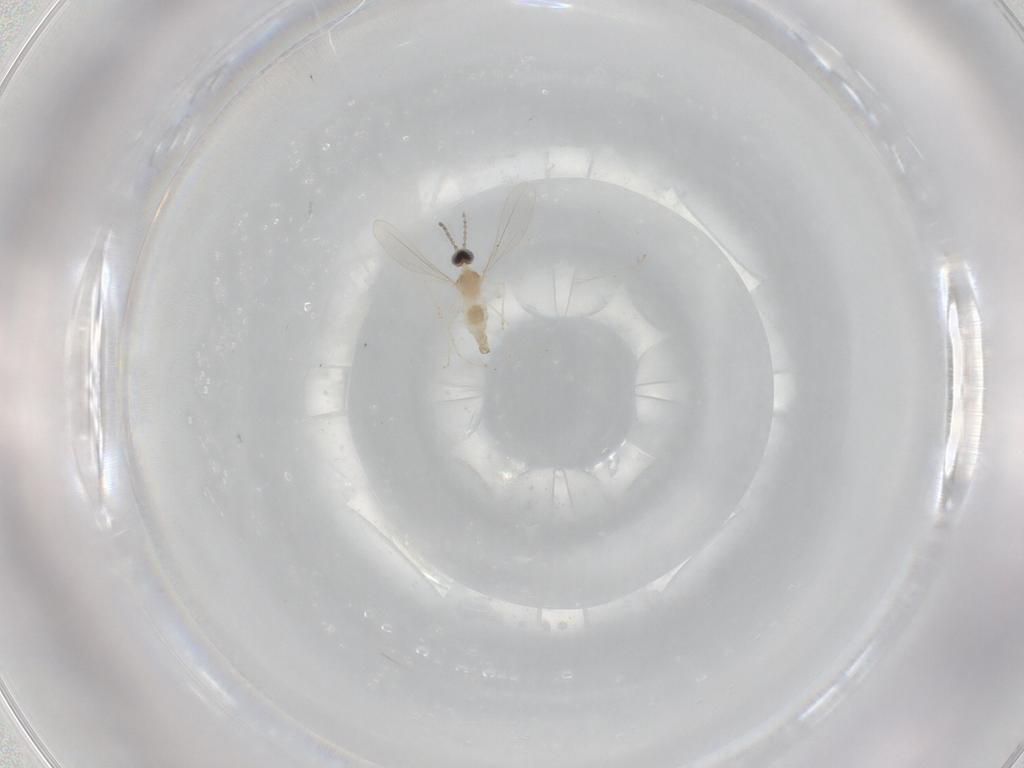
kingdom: Animalia
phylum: Arthropoda
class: Insecta
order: Diptera
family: Cecidomyiidae
